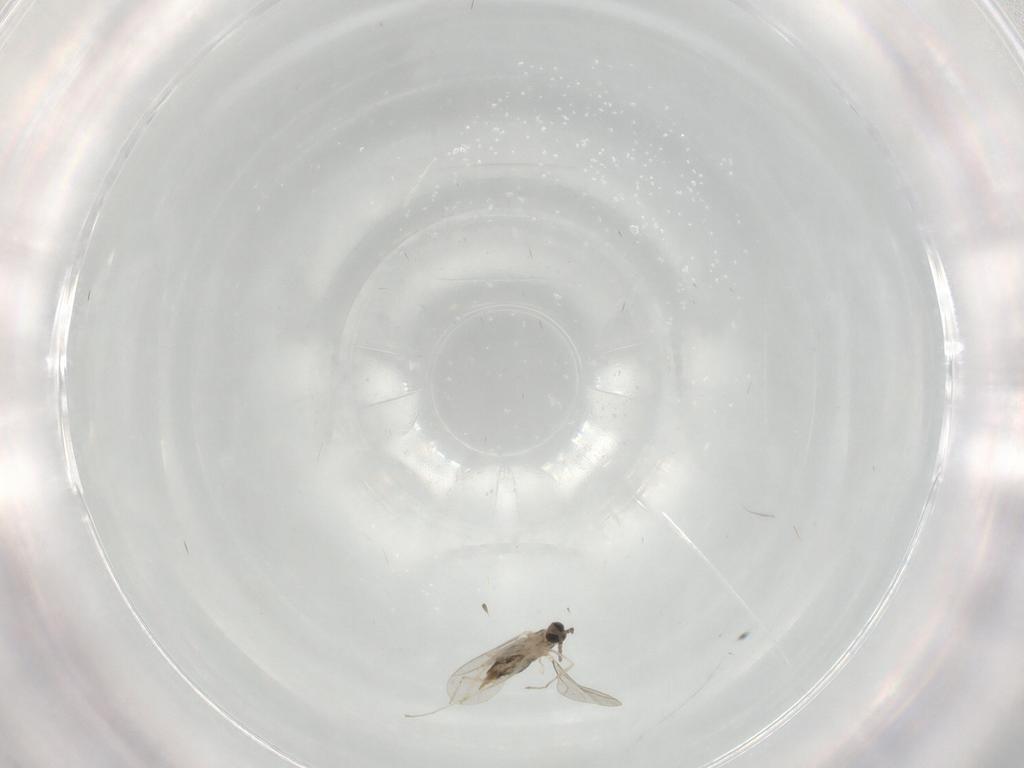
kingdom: Animalia
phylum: Arthropoda
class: Insecta
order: Diptera
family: Cecidomyiidae
